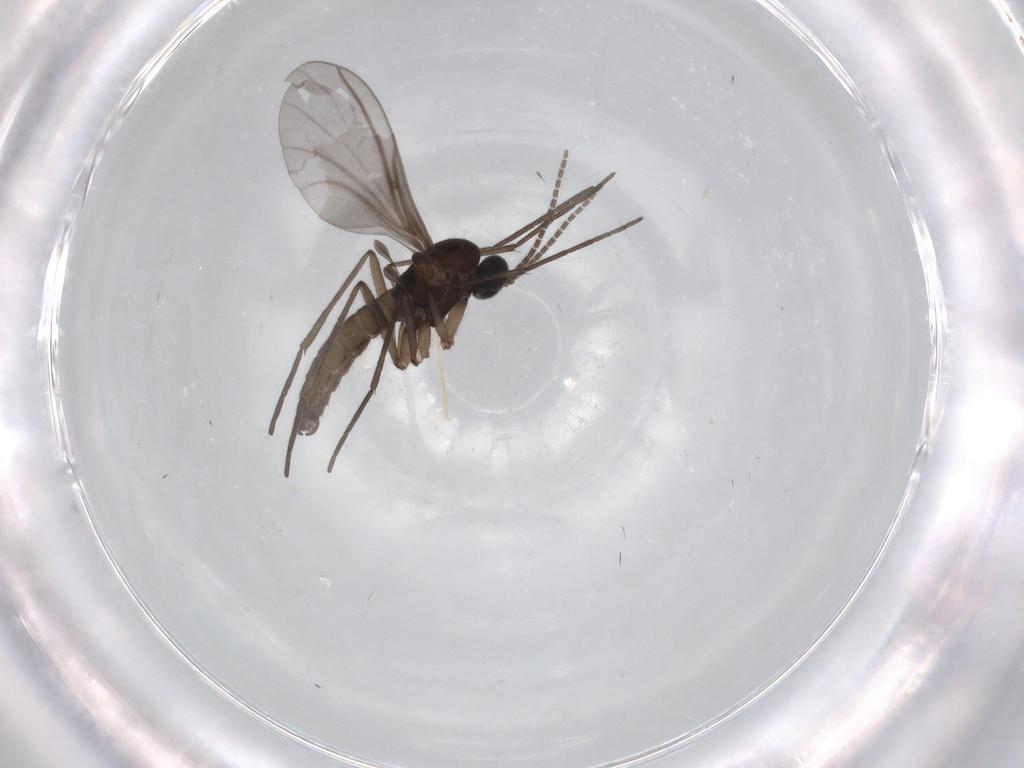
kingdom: Animalia
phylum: Arthropoda
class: Insecta
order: Diptera
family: Sciaridae
